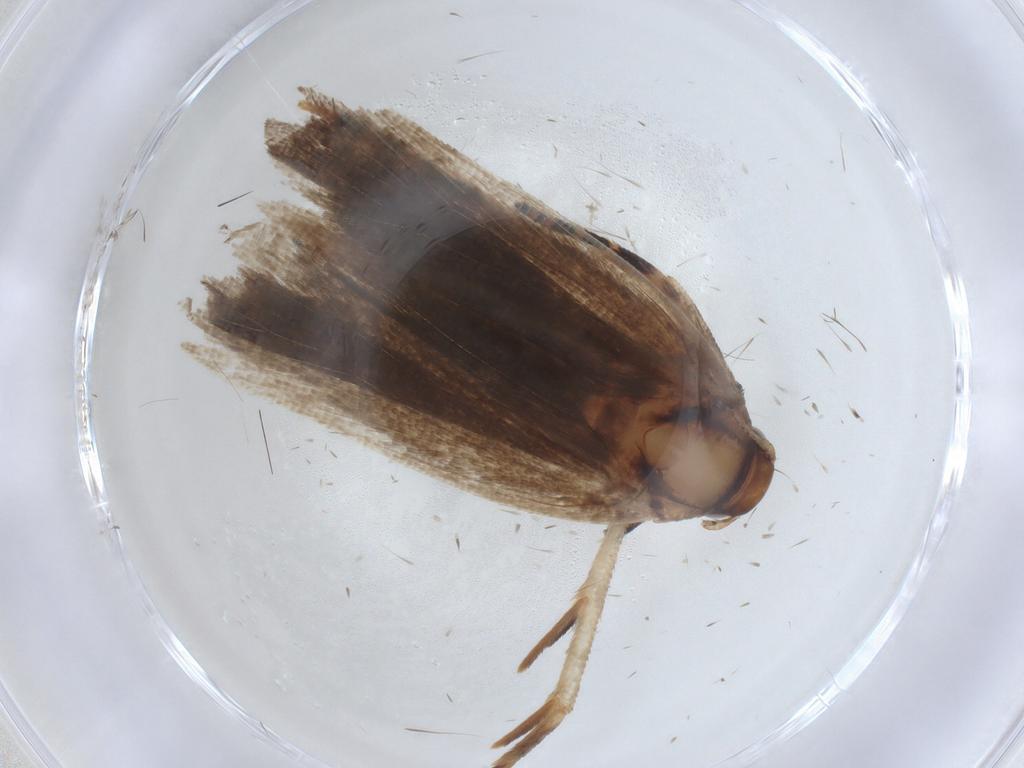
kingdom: Animalia
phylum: Arthropoda
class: Insecta
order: Lepidoptera
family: Gelechiidae
